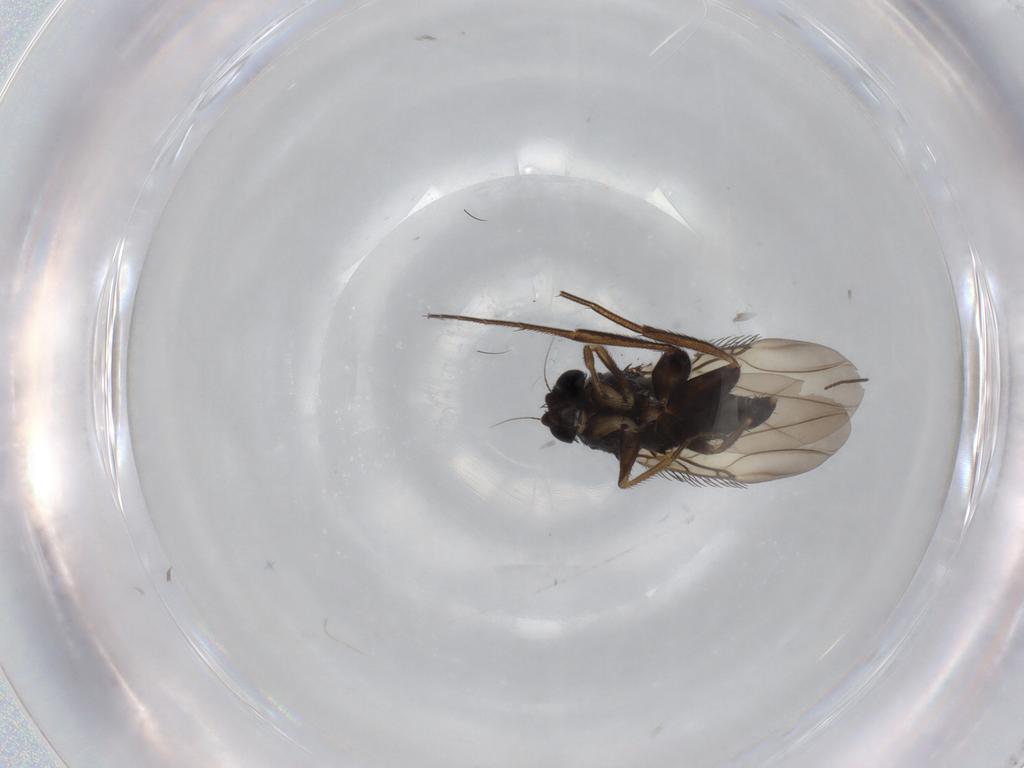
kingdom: Animalia
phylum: Arthropoda
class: Insecta
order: Diptera
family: Phoridae
